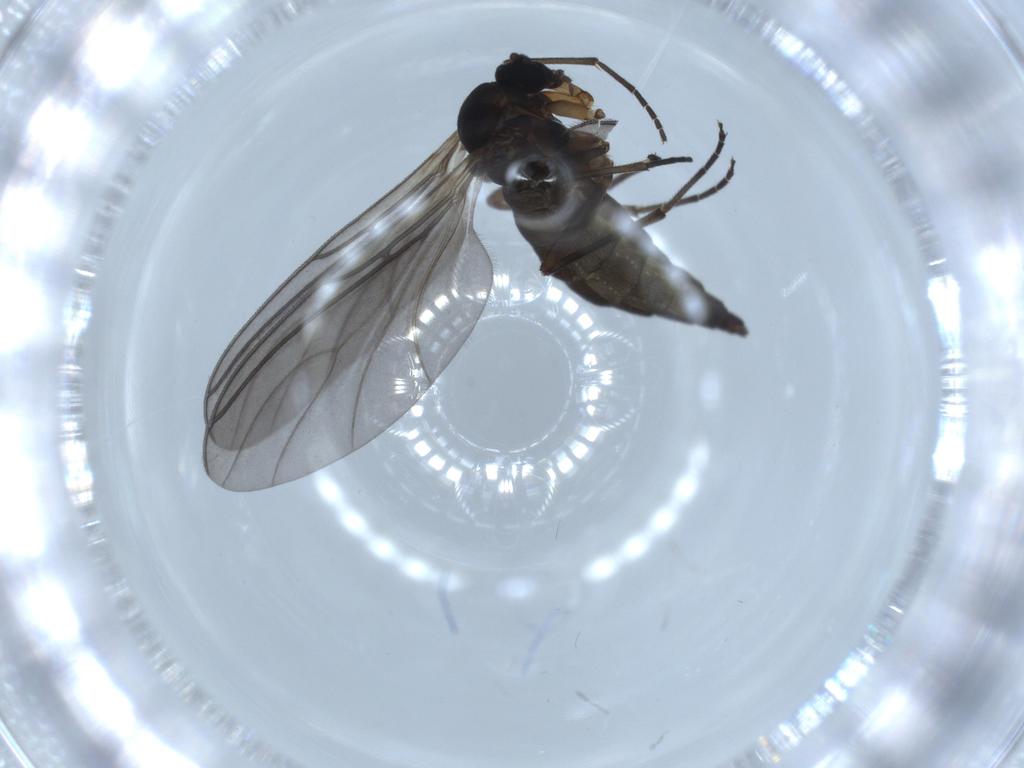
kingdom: Animalia
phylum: Arthropoda
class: Insecta
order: Diptera
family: Sciaridae
